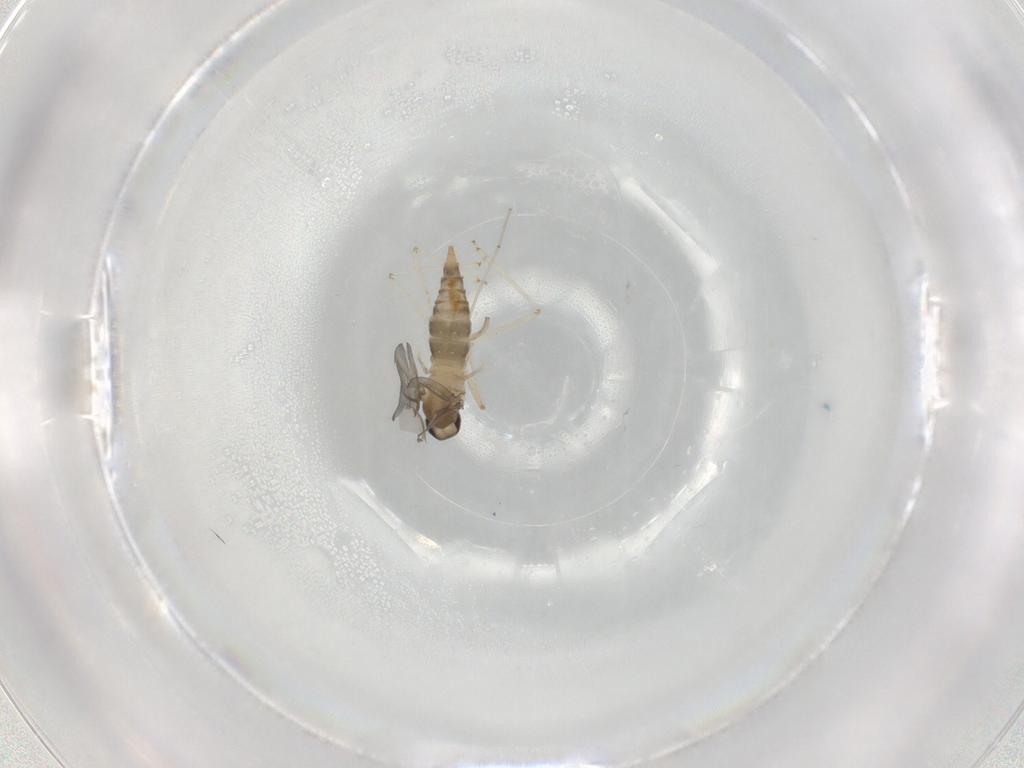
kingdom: Animalia
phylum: Arthropoda
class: Insecta
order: Diptera
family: Cecidomyiidae
